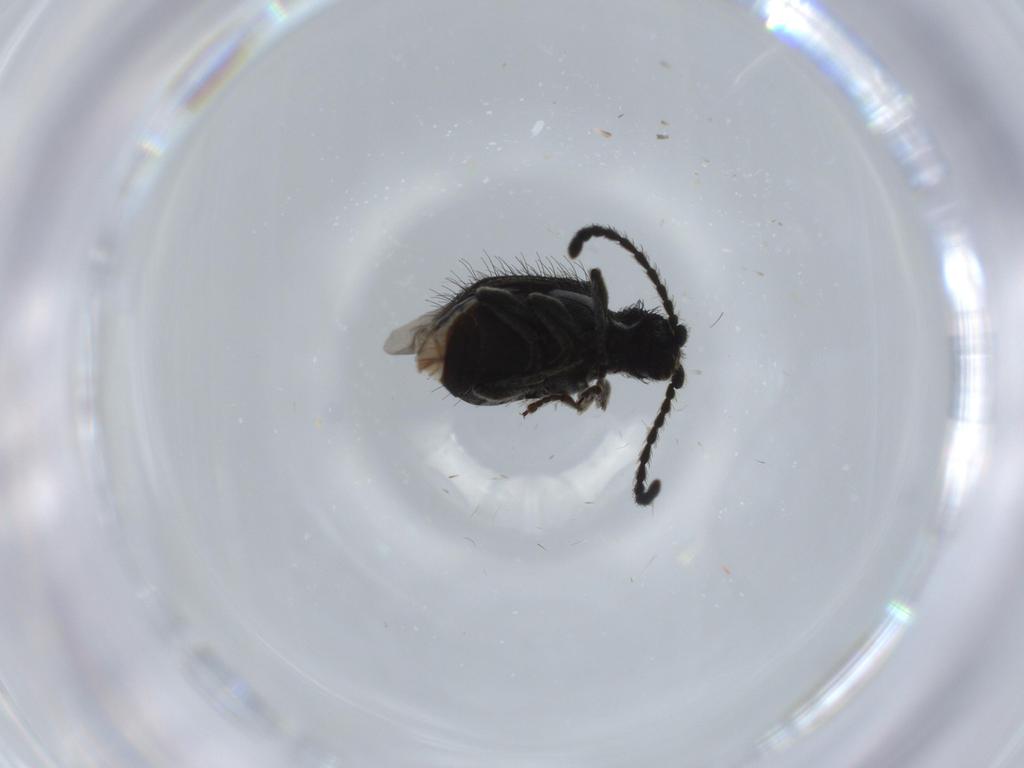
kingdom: Animalia
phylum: Arthropoda
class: Insecta
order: Coleoptera
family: Ptinidae
